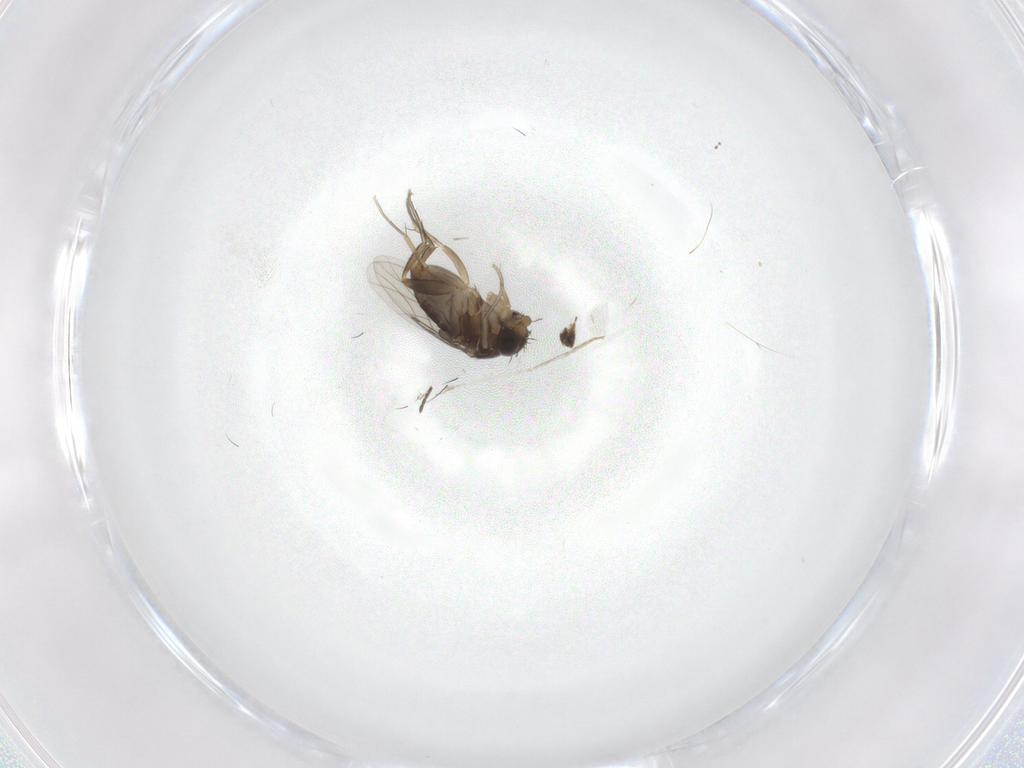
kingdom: Animalia
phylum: Arthropoda
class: Insecta
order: Diptera
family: Phoridae
